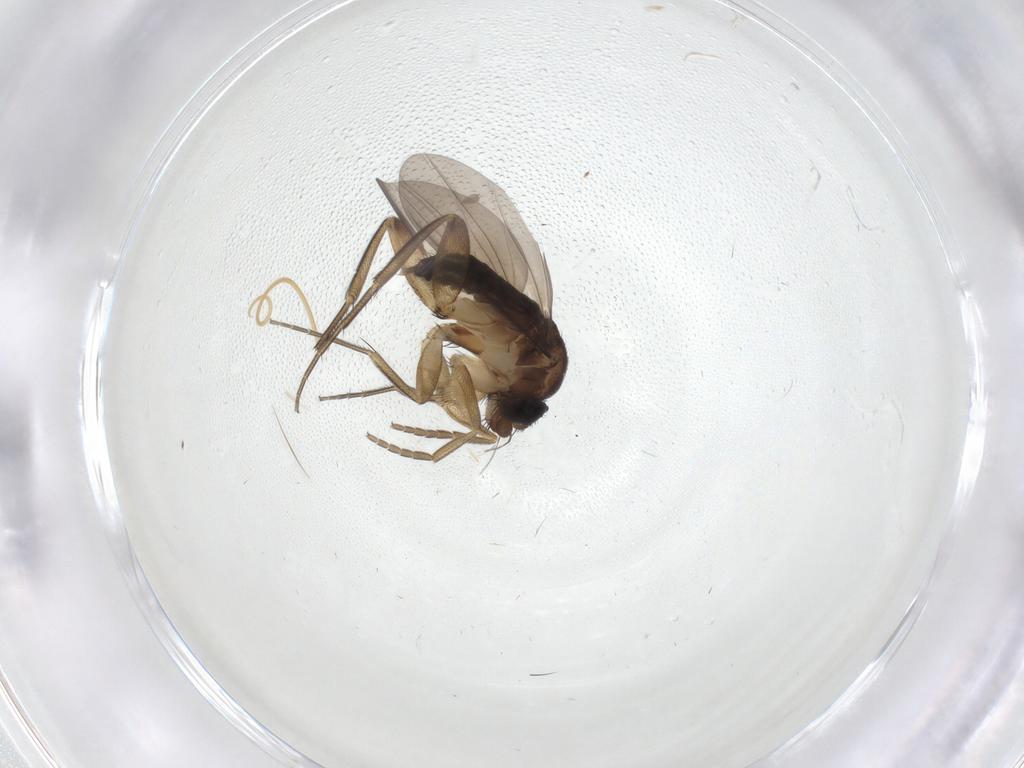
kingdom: Animalia
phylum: Arthropoda
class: Insecta
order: Diptera
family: Phoridae
